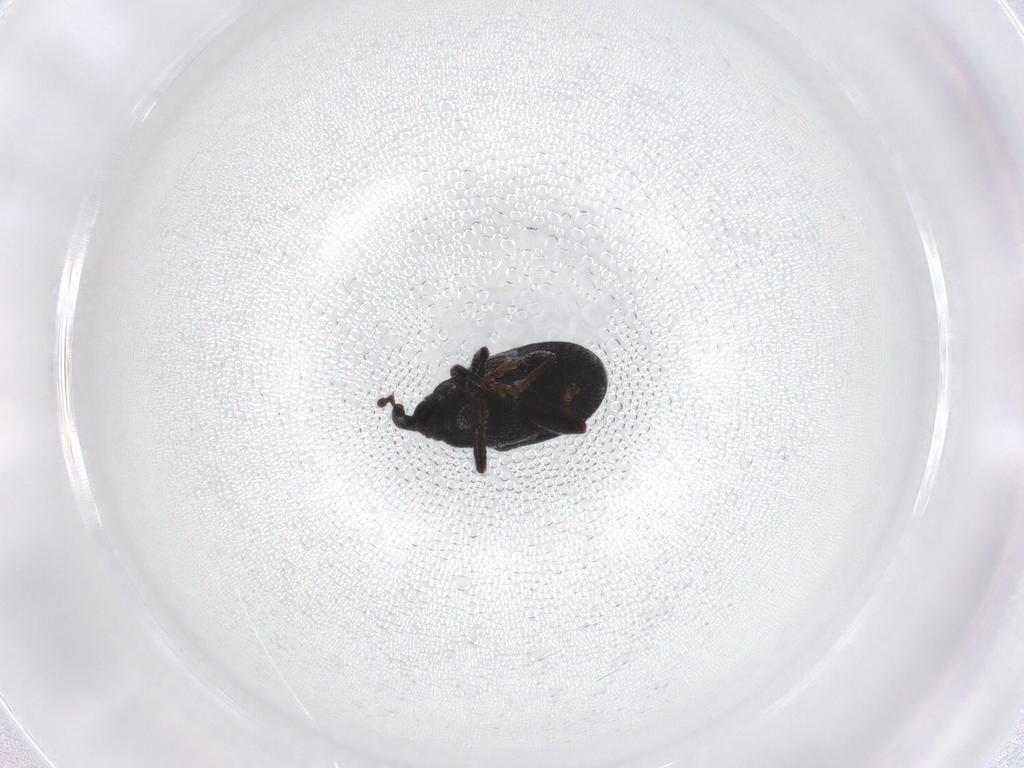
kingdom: Animalia
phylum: Arthropoda
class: Insecta
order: Coleoptera
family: Curculionidae
